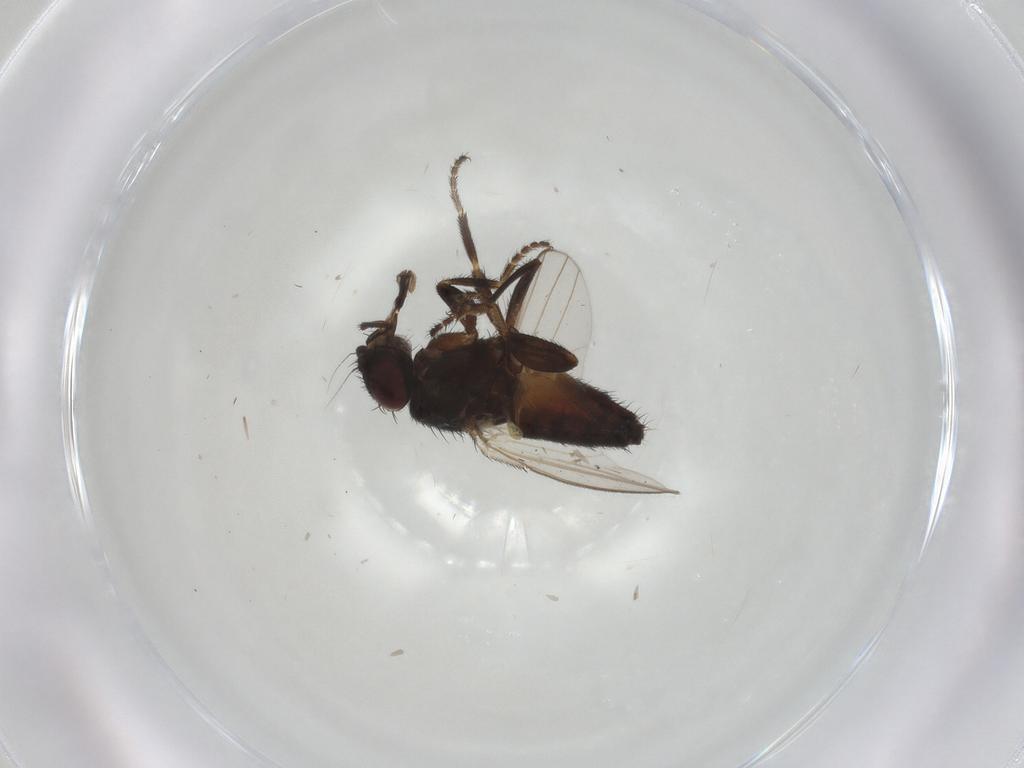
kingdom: Animalia
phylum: Arthropoda
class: Insecta
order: Diptera
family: Milichiidae
